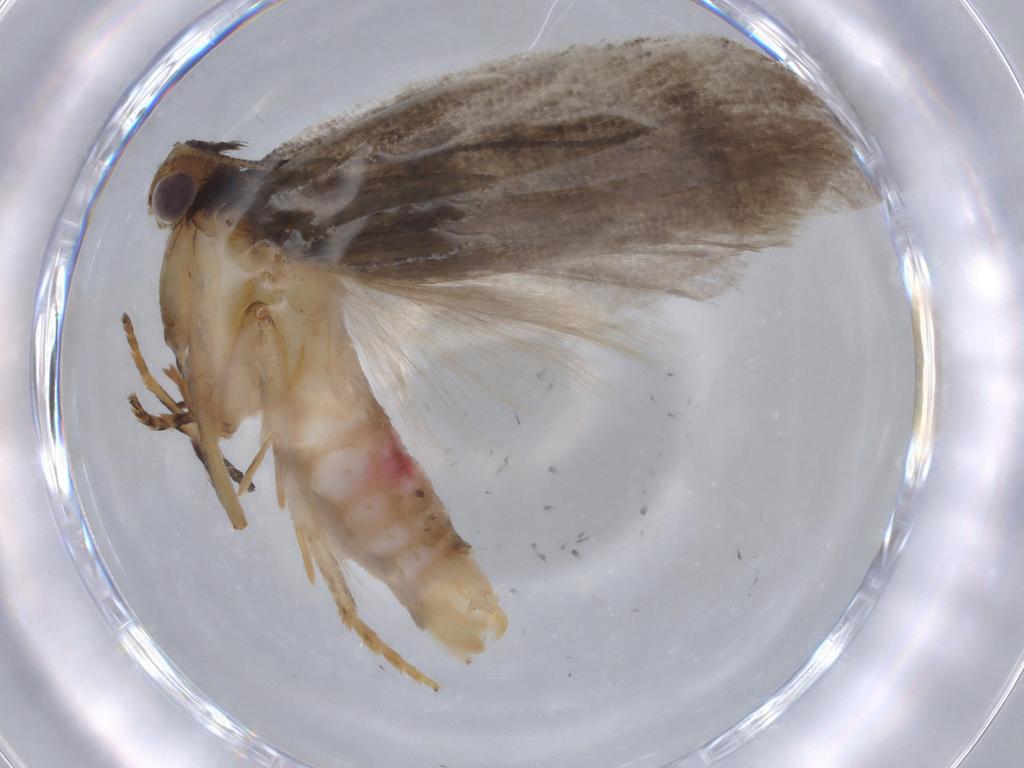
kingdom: Animalia
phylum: Arthropoda
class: Insecta
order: Lepidoptera
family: Gelechiidae
